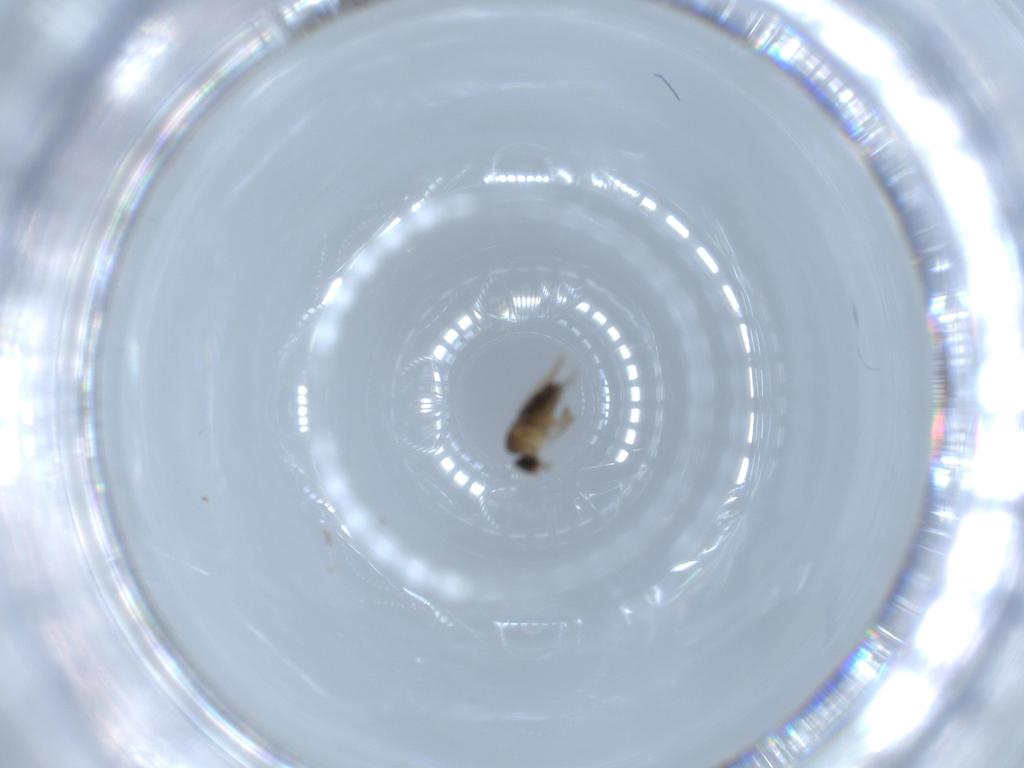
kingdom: Animalia
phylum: Arthropoda
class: Insecta
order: Diptera
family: Phoridae
